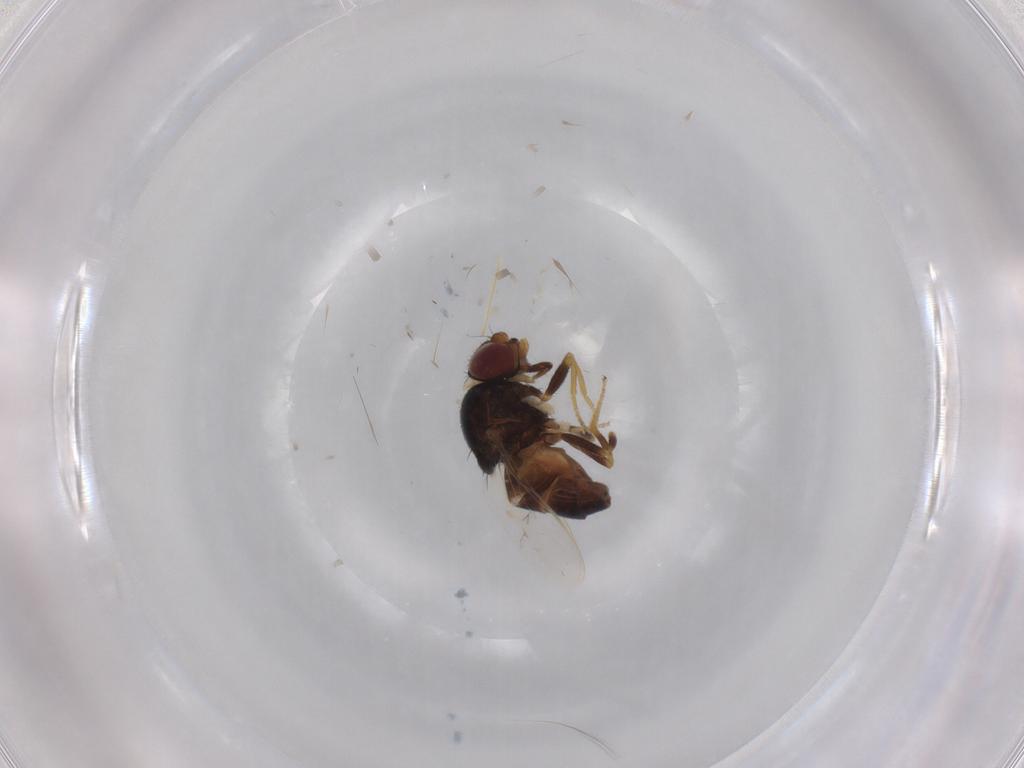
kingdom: Animalia
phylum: Arthropoda
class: Insecta
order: Diptera
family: Chloropidae
